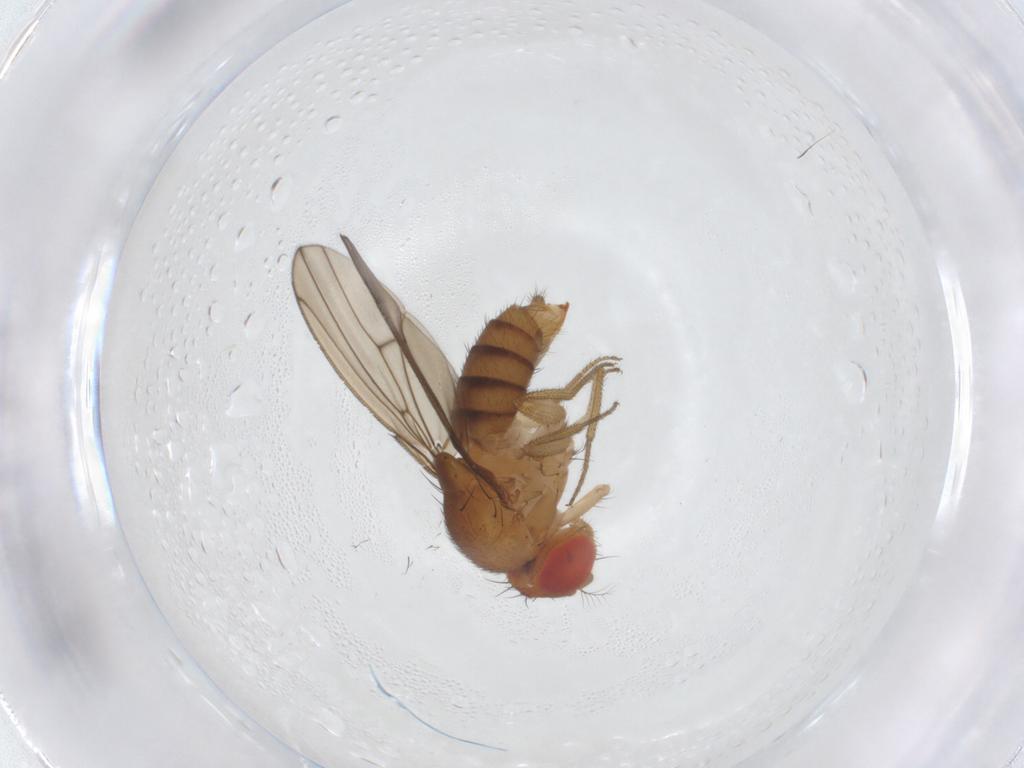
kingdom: Animalia
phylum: Arthropoda
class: Insecta
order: Diptera
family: Drosophilidae
